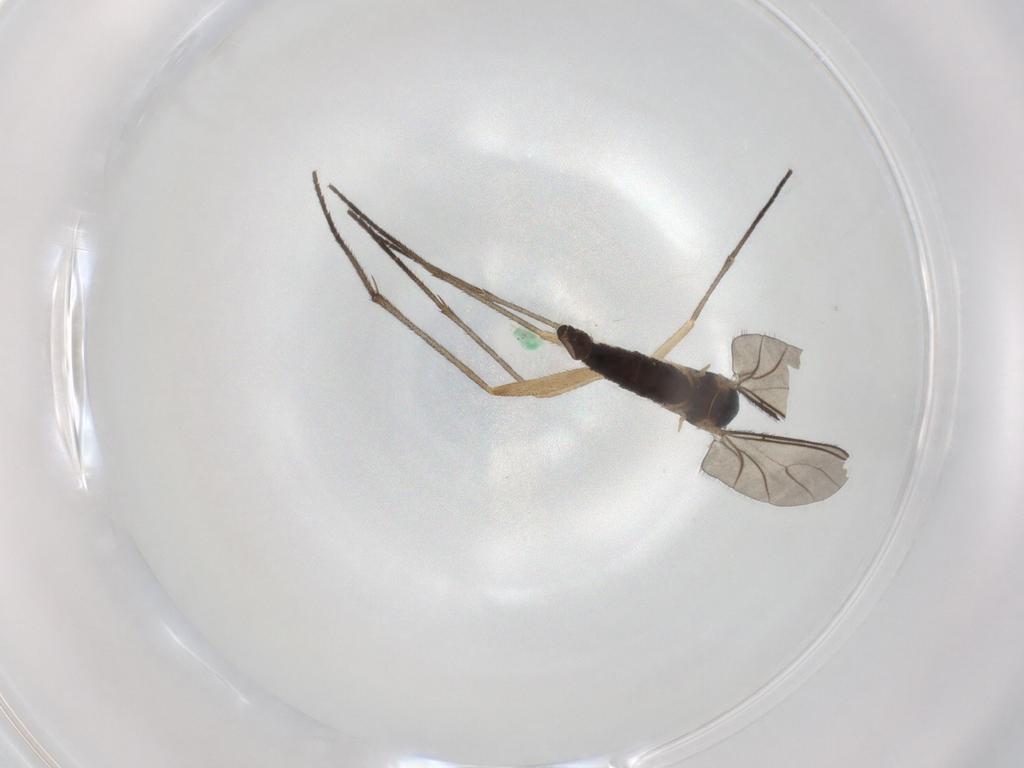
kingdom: Animalia
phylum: Arthropoda
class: Insecta
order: Diptera
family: Sciaridae
